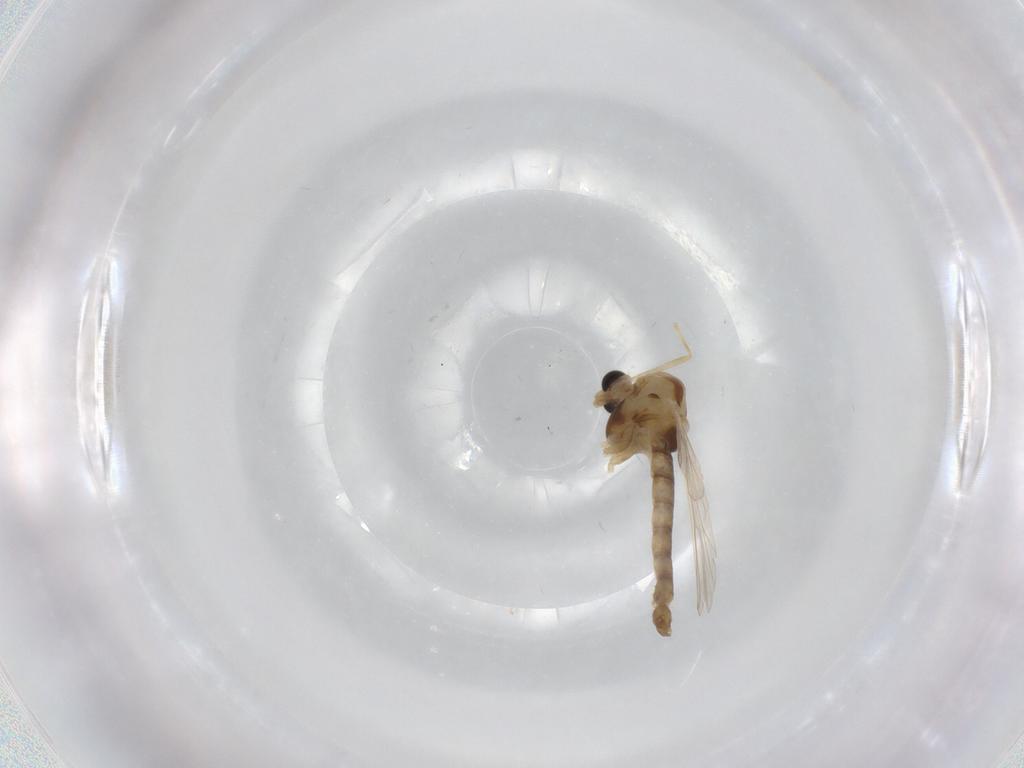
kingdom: Animalia
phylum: Arthropoda
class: Insecta
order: Diptera
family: Chironomidae
